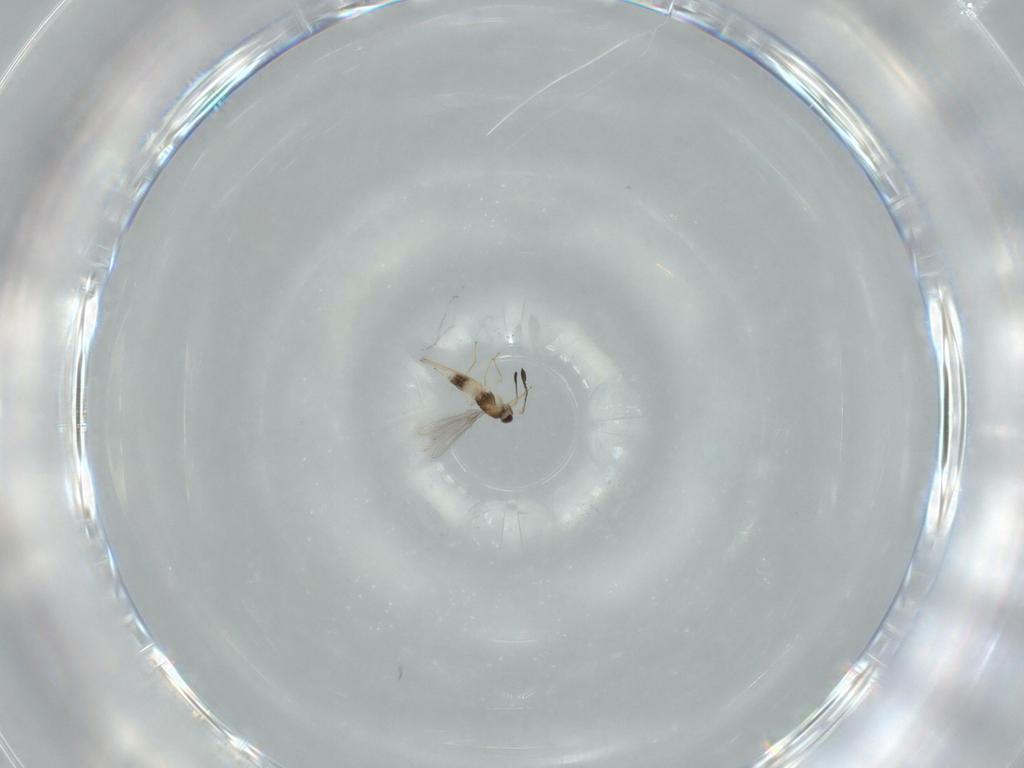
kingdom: Animalia
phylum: Arthropoda
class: Insecta
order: Hymenoptera
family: Mymaridae
